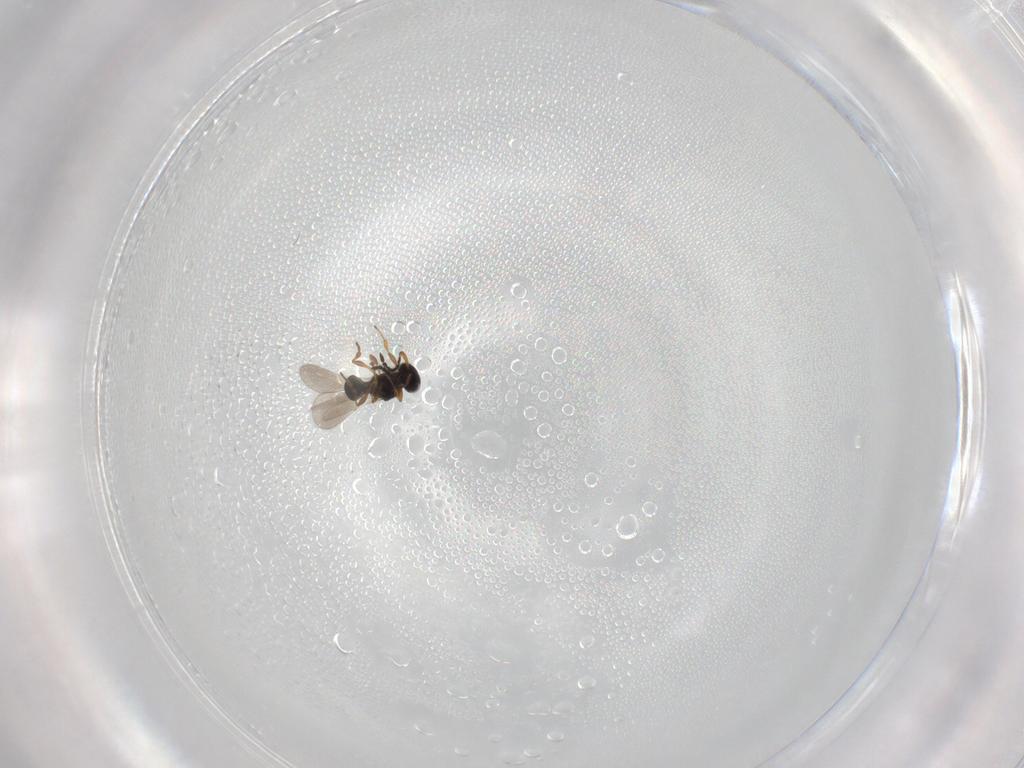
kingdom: Animalia
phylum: Arthropoda
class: Insecta
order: Hymenoptera
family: Platygastridae
